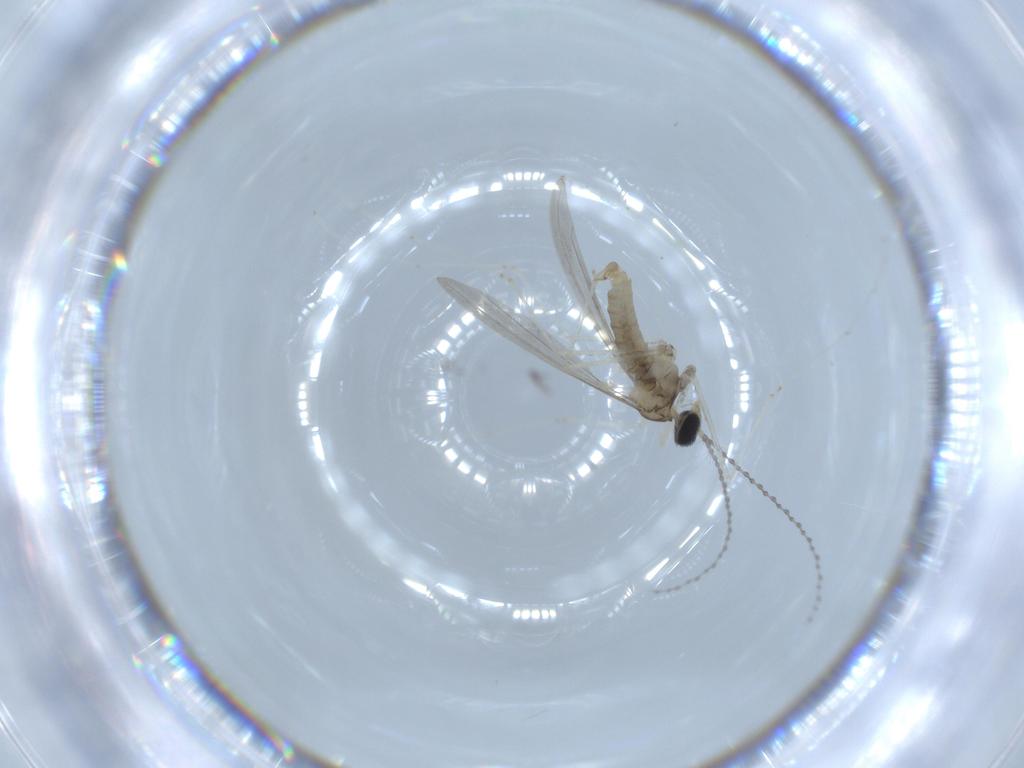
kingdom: Animalia
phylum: Arthropoda
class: Insecta
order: Diptera
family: Cecidomyiidae
